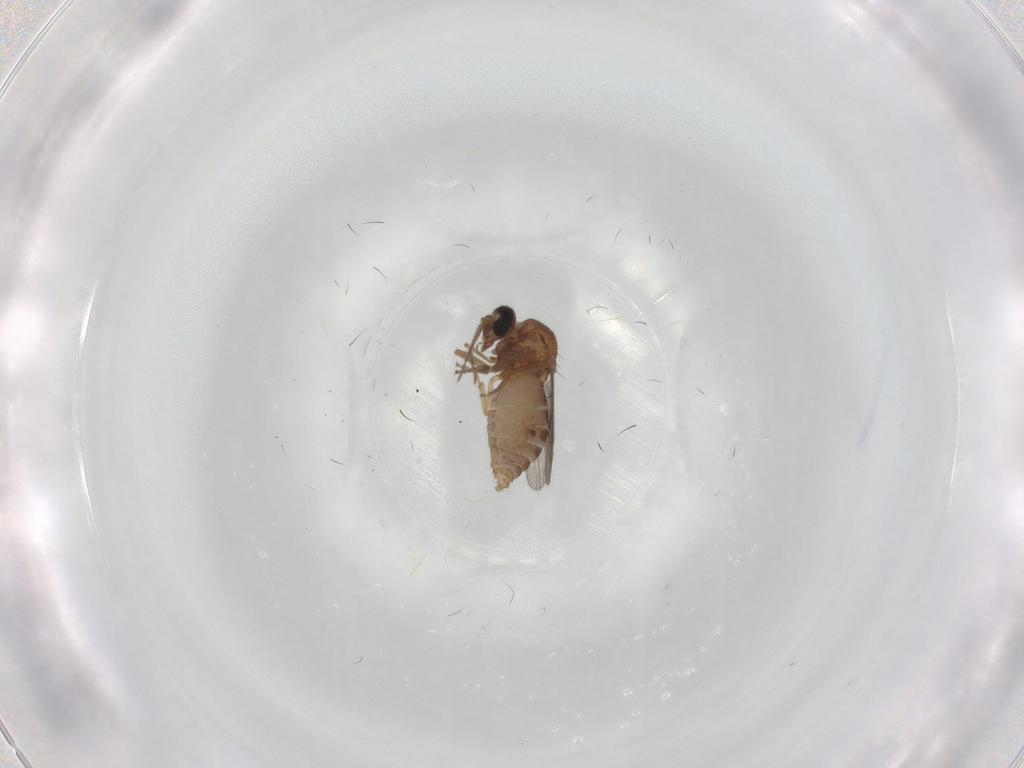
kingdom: Animalia
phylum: Arthropoda
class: Insecta
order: Diptera
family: Ceratopogonidae
